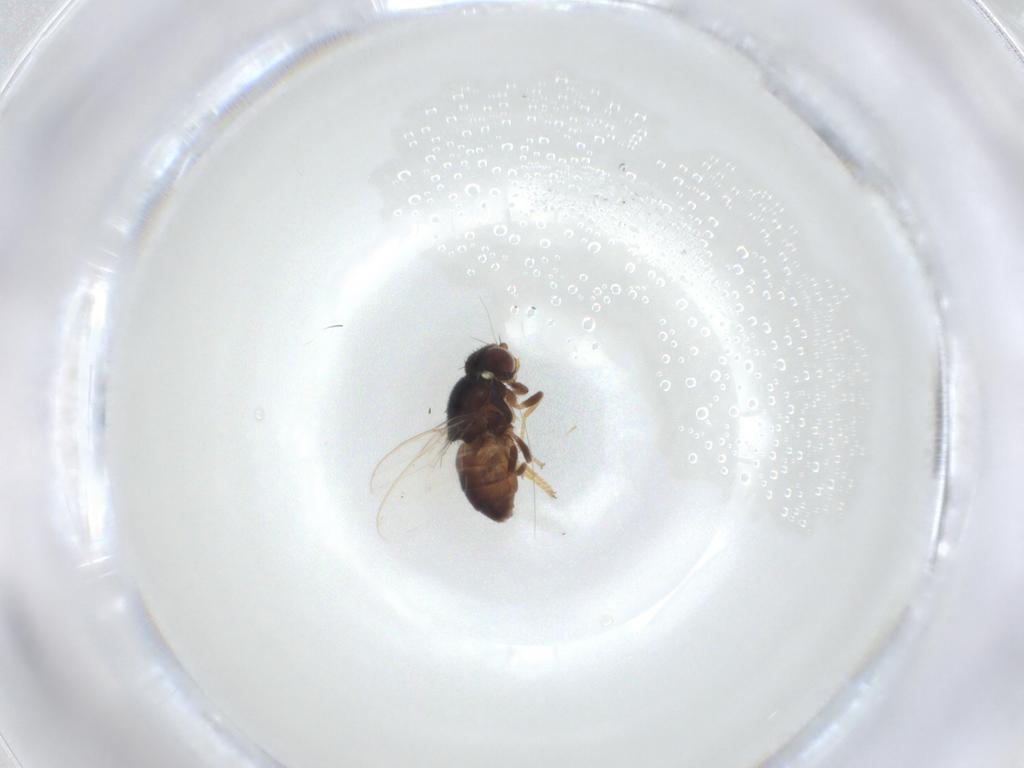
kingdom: Animalia
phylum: Arthropoda
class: Insecta
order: Diptera
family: Chloropidae
